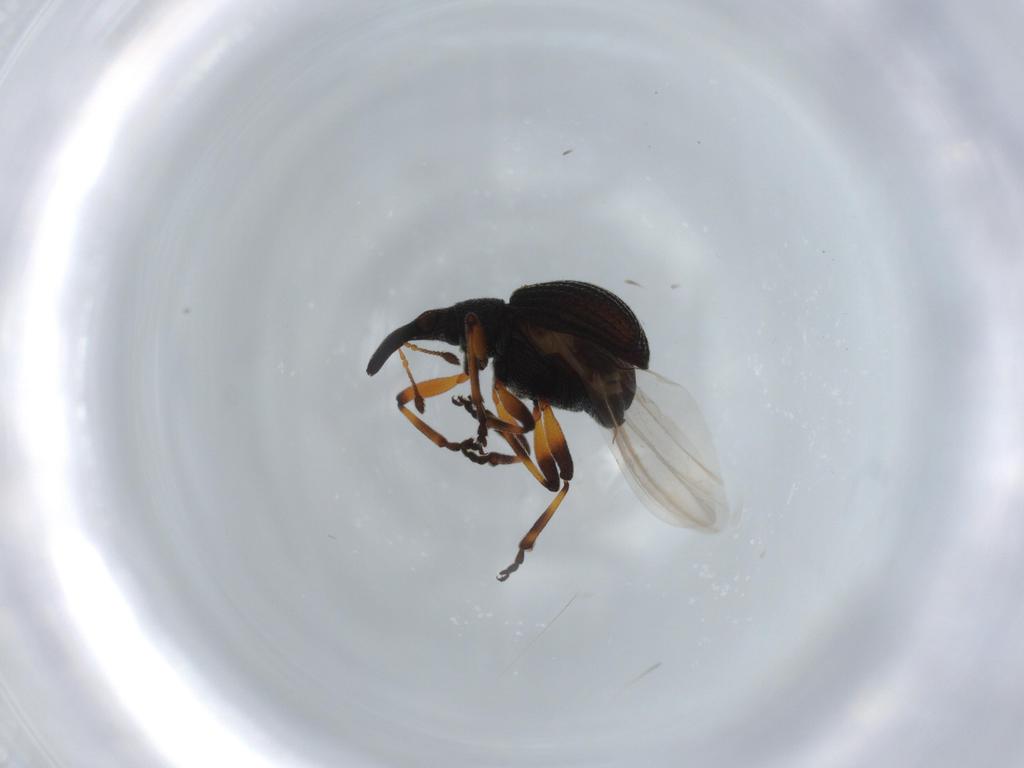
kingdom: Animalia
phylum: Arthropoda
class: Insecta
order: Coleoptera
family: Brentidae
